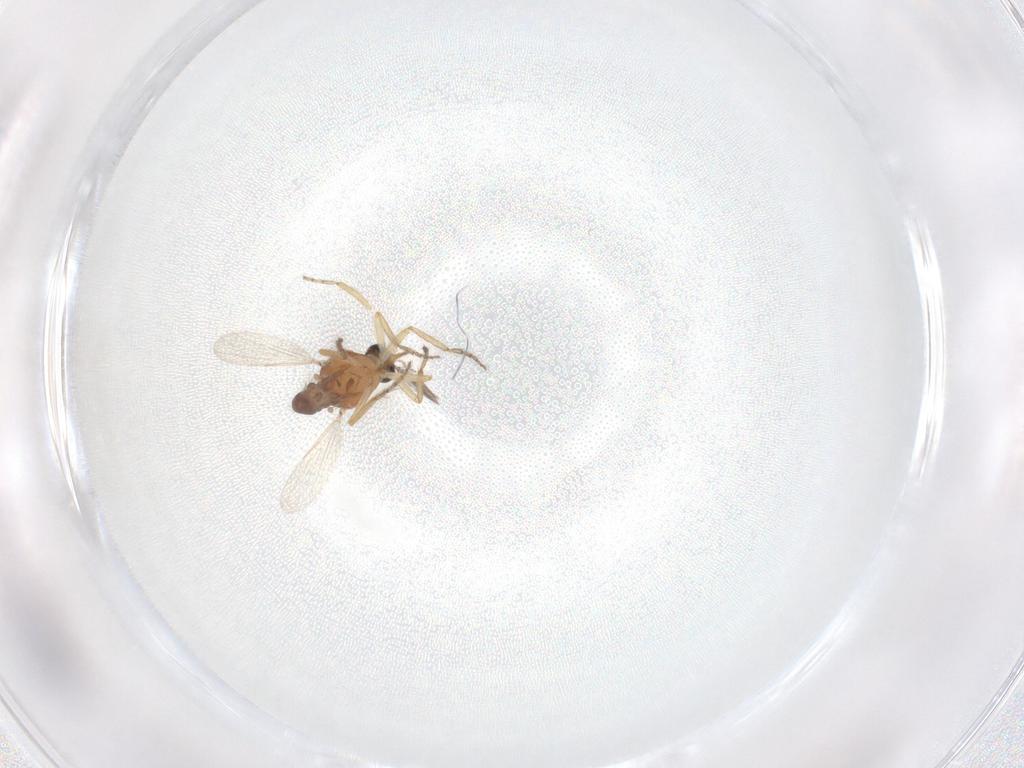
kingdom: Animalia
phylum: Arthropoda
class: Insecta
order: Diptera
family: Ceratopogonidae
